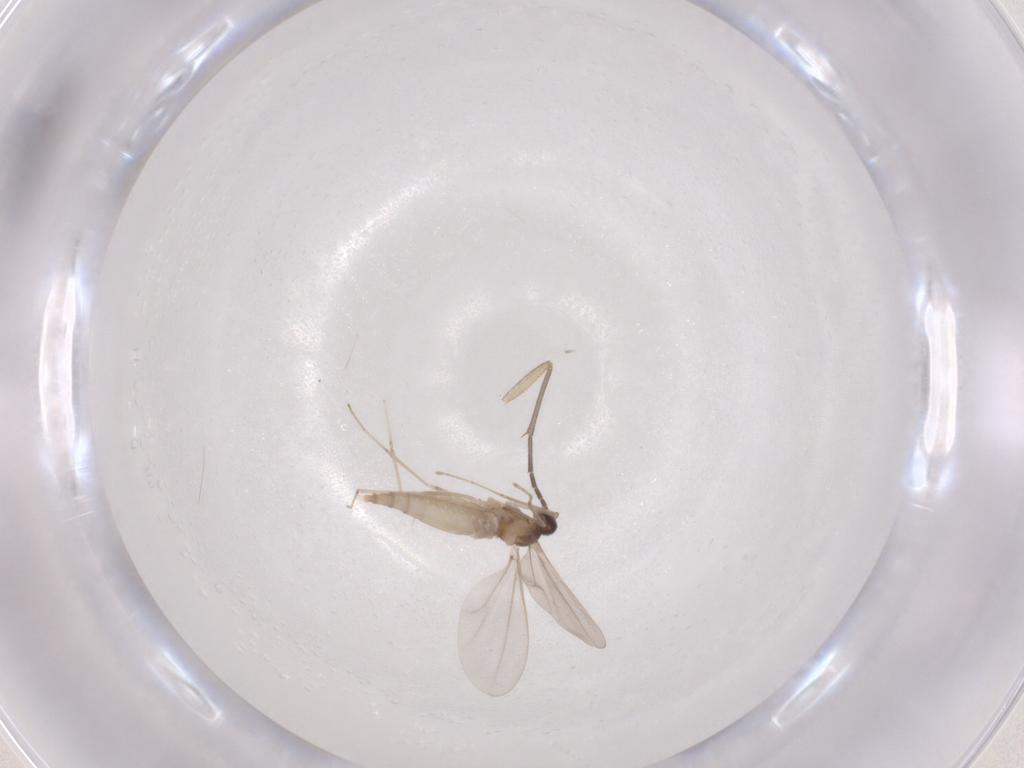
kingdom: Animalia
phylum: Arthropoda
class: Insecta
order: Diptera
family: Cecidomyiidae
